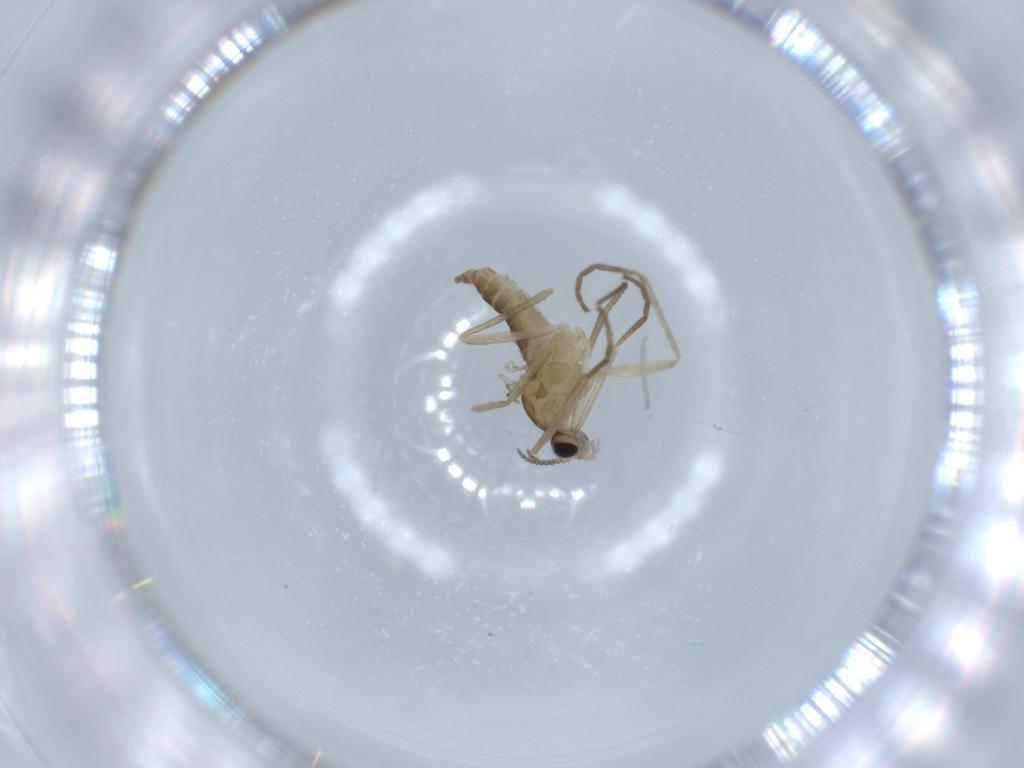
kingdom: Animalia
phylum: Arthropoda
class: Insecta
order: Diptera
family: Cecidomyiidae
